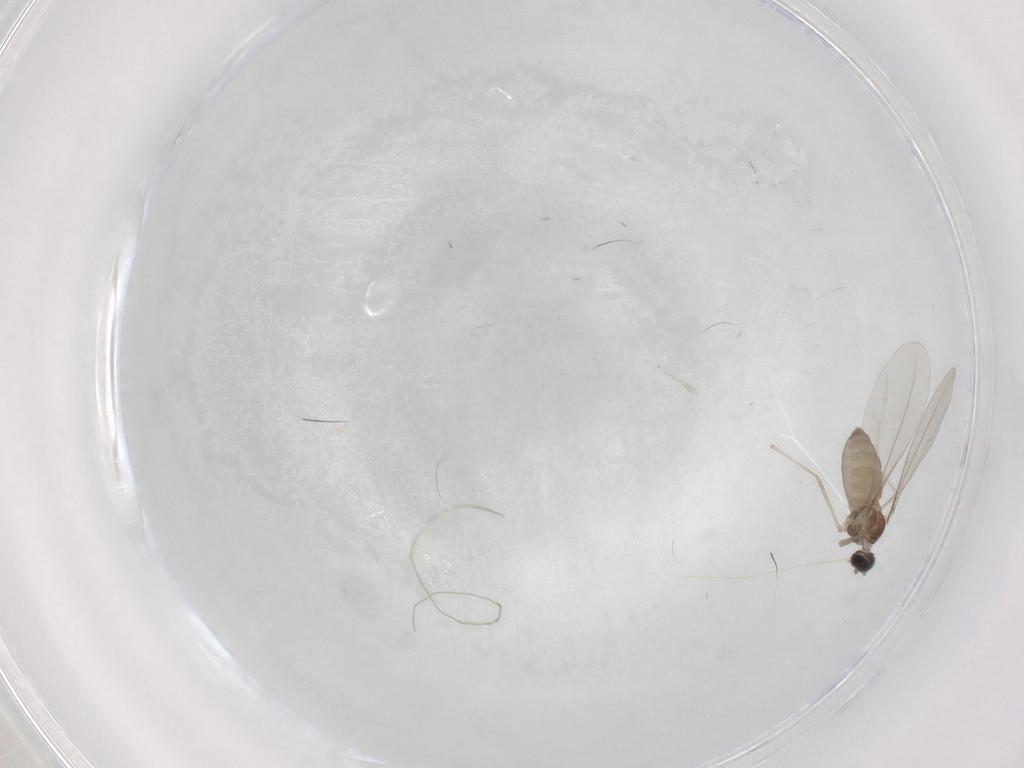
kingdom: Animalia
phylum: Arthropoda
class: Insecta
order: Diptera
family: Cecidomyiidae
